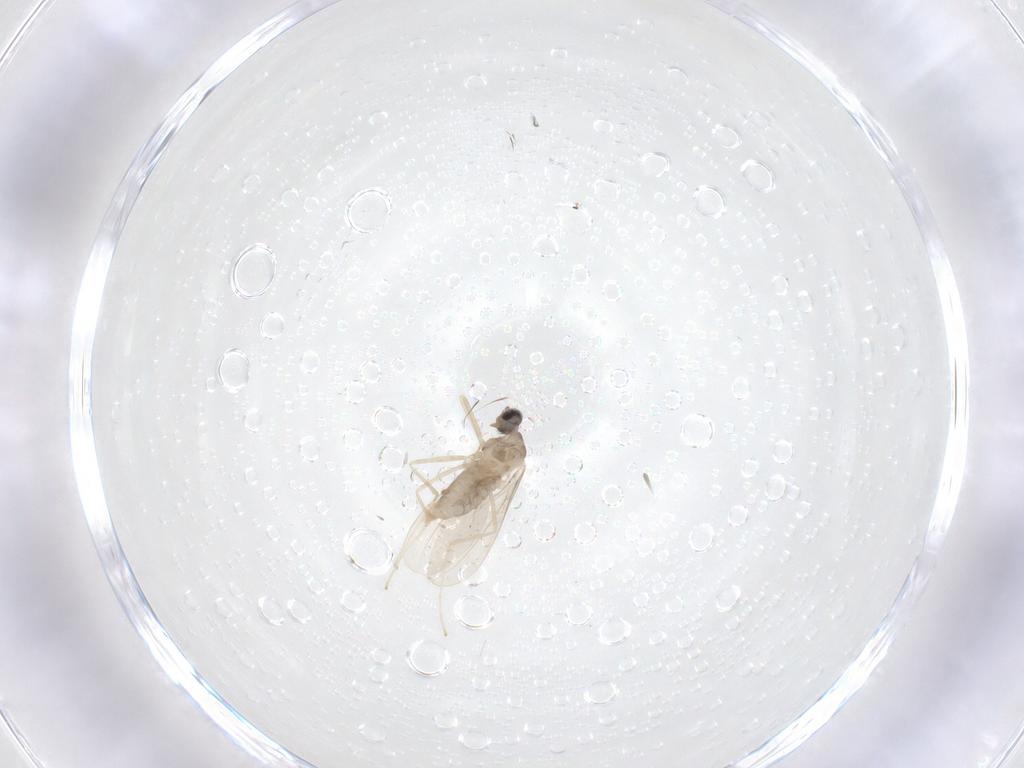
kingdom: Animalia
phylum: Arthropoda
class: Insecta
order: Diptera
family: Cecidomyiidae
